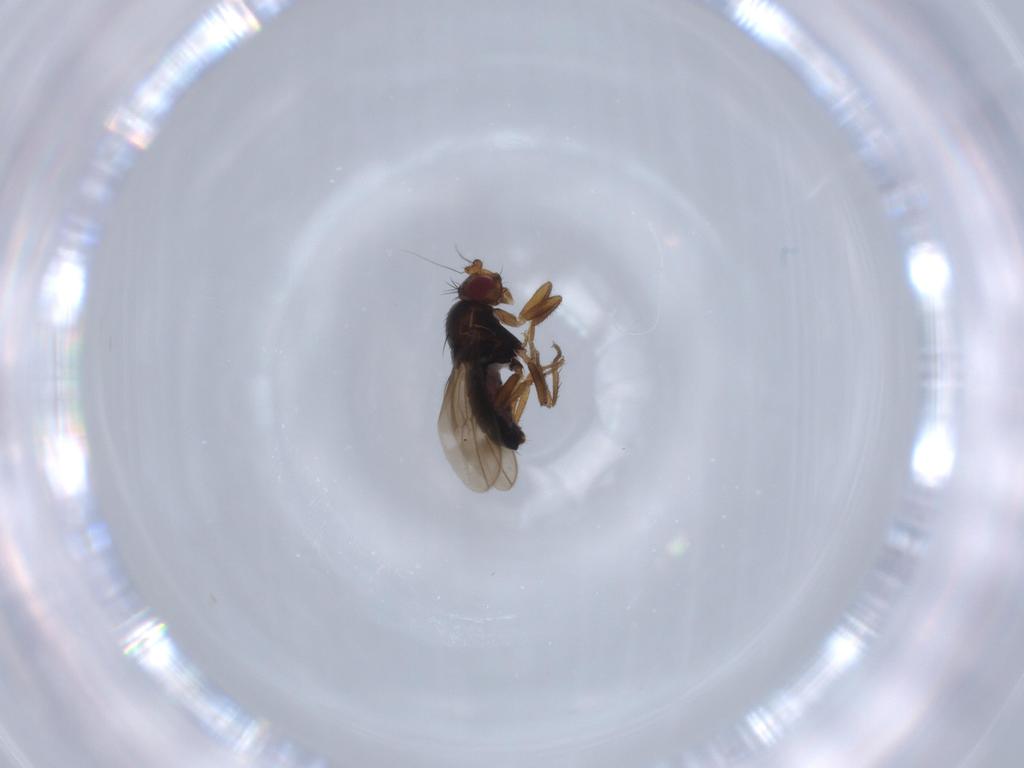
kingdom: Animalia
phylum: Arthropoda
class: Insecta
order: Diptera
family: Sphaeroceridae
